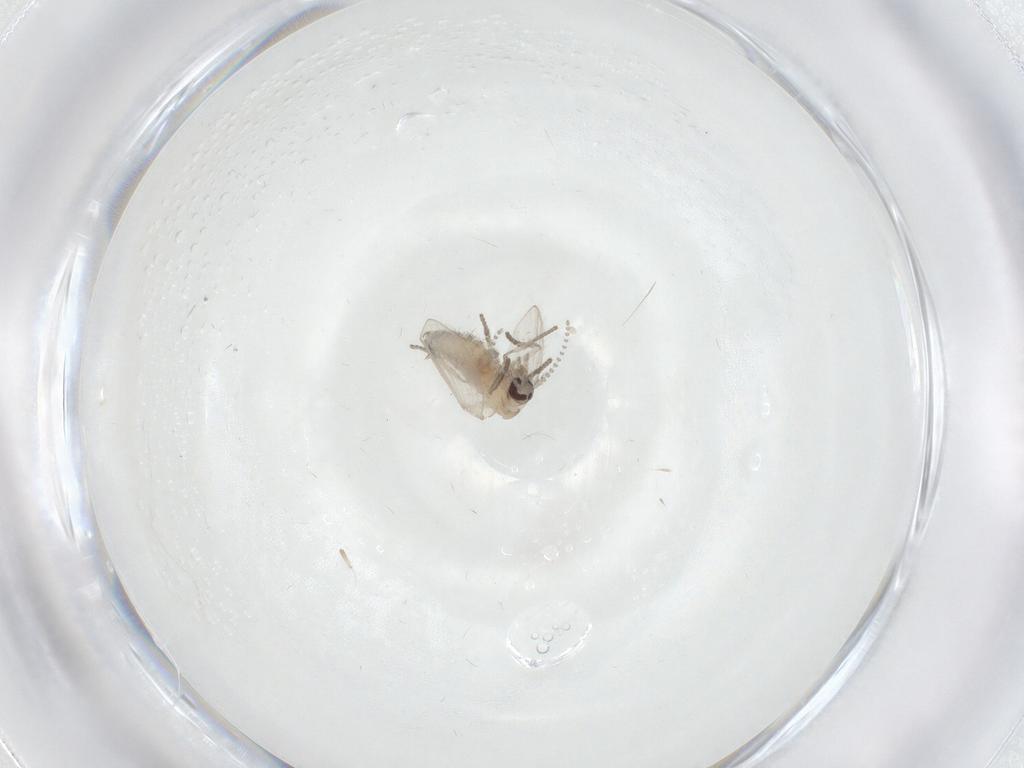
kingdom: Animalia
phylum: Arthropoda
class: Insecta
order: Diptera
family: Psychodidae
